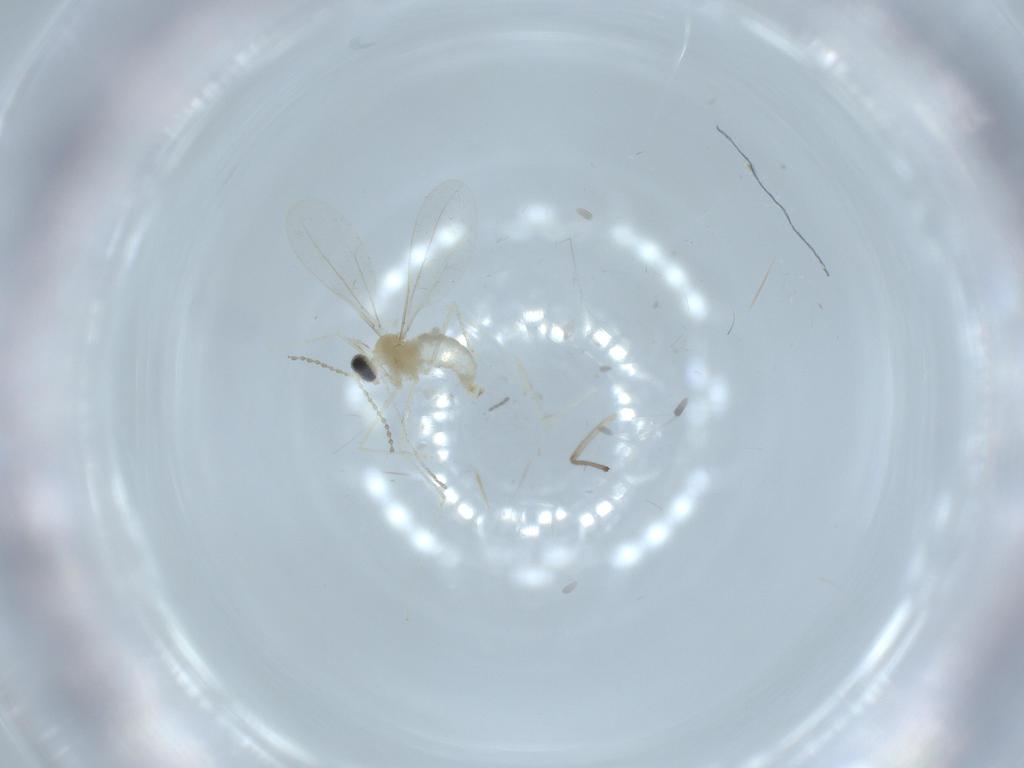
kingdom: Animalia
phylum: Arthropoda
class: Insecta
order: Diptera
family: Cecidomyiidae
